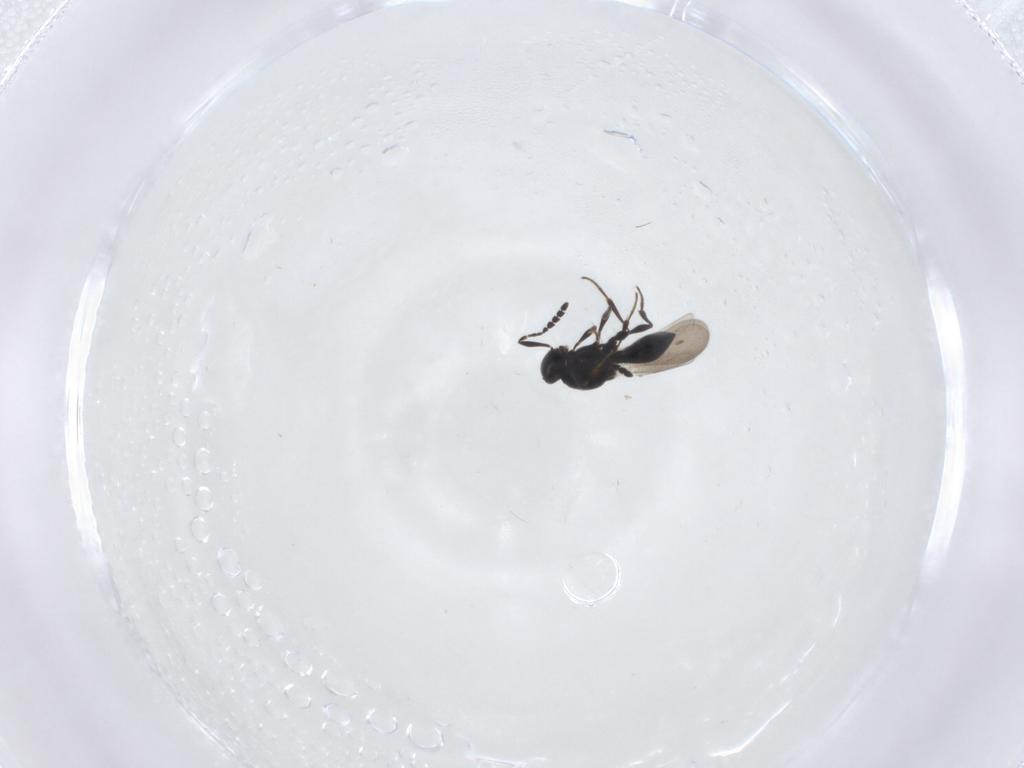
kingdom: Animalia
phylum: Arthropoda
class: Insecta
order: Hymenoptera
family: Platygastridae
